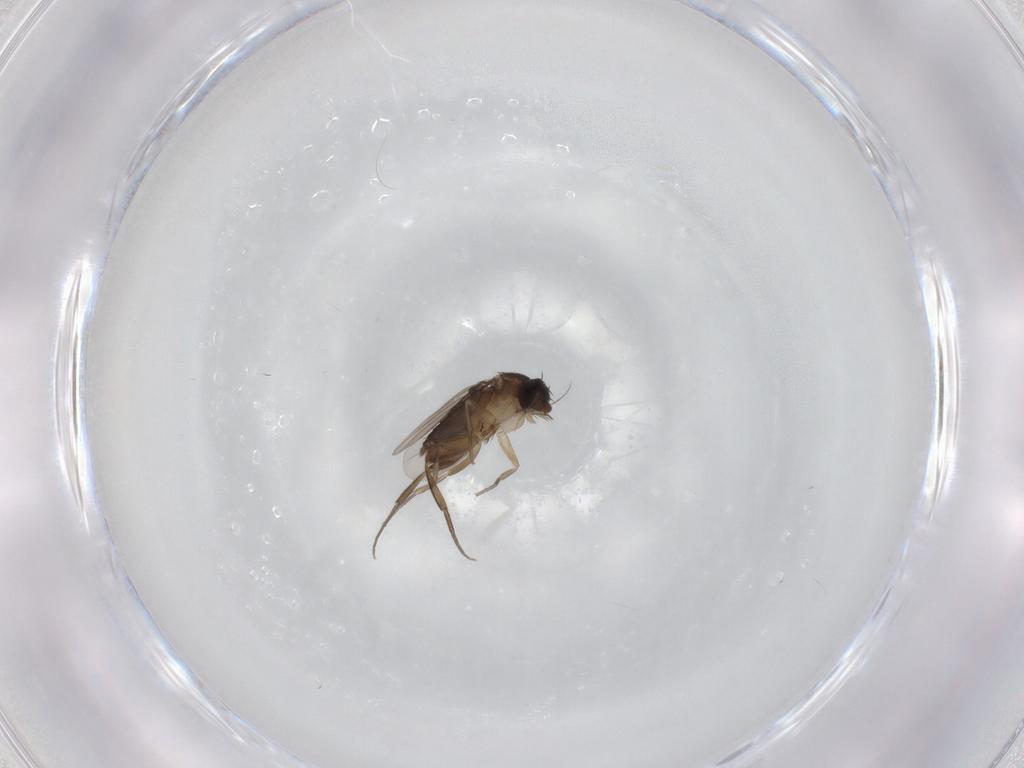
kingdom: Animalia
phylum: Arthropoda
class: Insecta
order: Diptera
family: Phoridae
